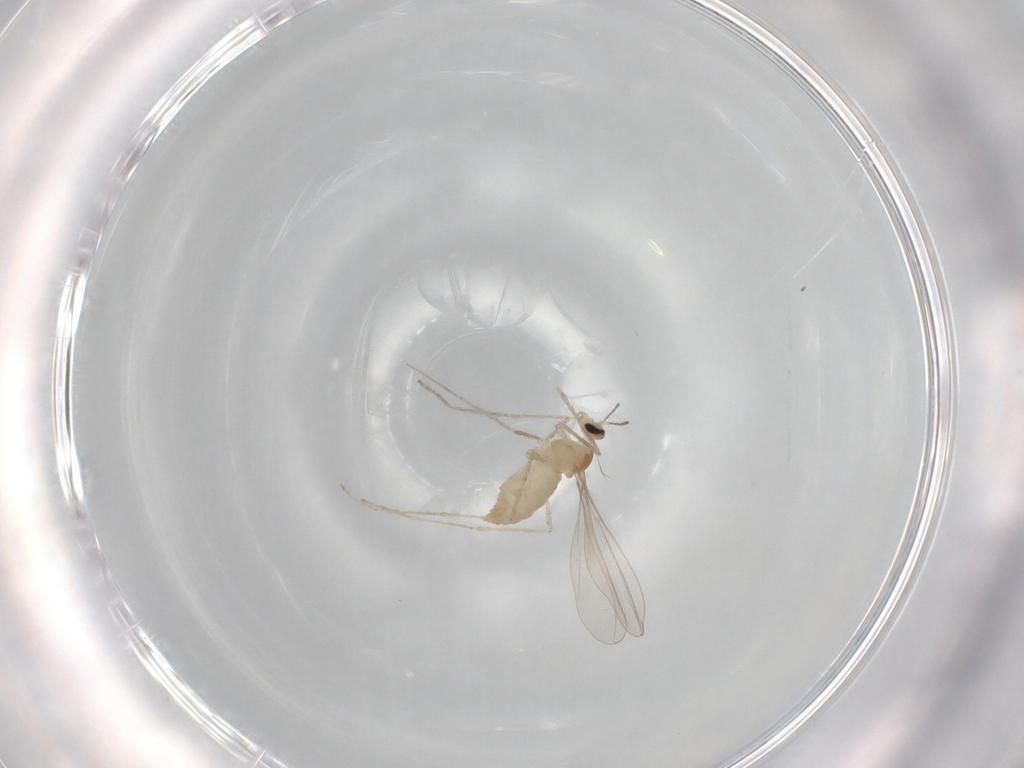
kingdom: Animalia
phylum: Arthropoda
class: Insecta
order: Diptera
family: Cecidomyiidae
